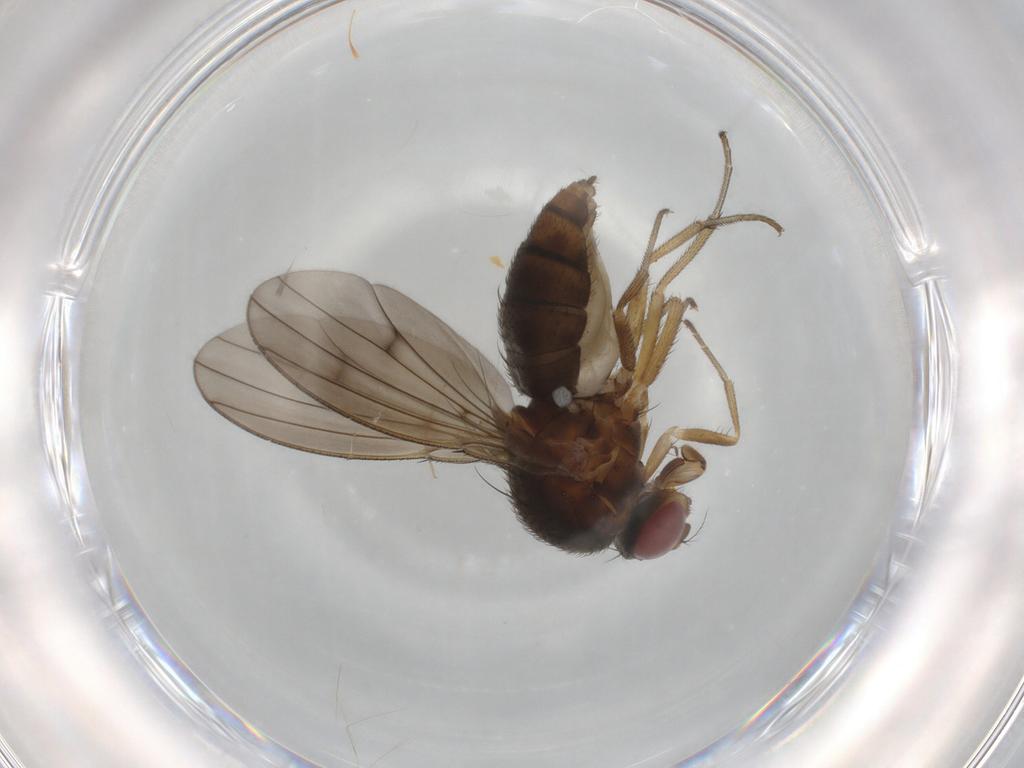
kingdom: Animalia
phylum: Arthropoda
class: Insecta
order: Diptera
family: Curtonotidae
